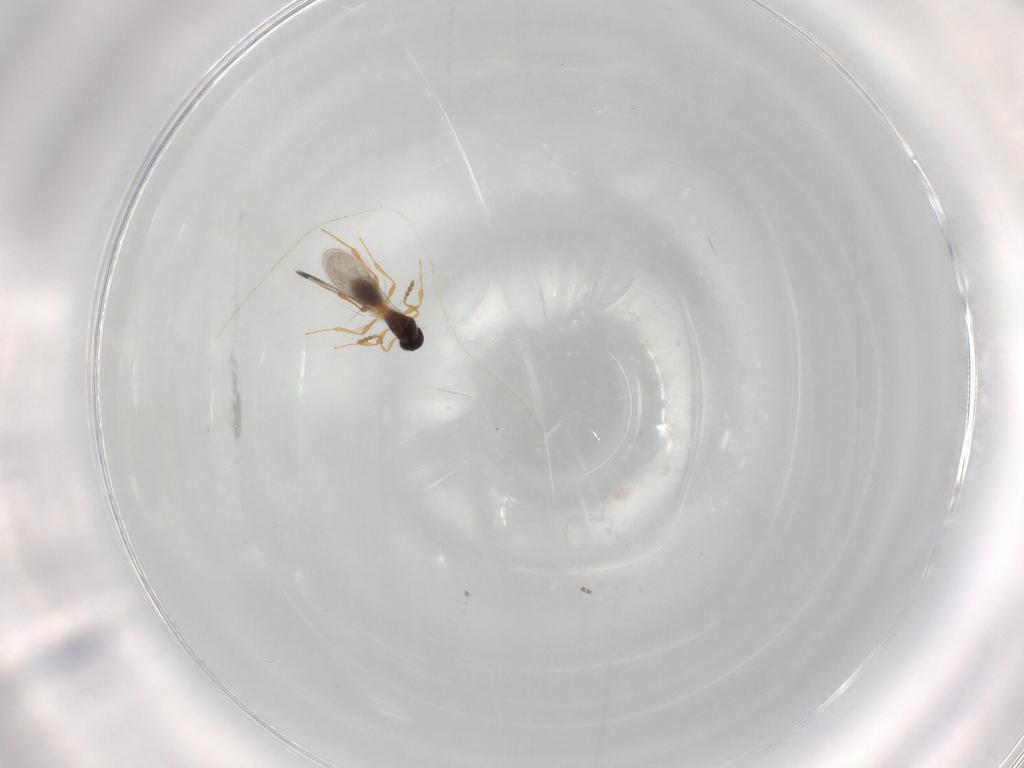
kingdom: Animalia
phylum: Arthropoda
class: Insecta
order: Hymenoptera
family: Platygastridae
